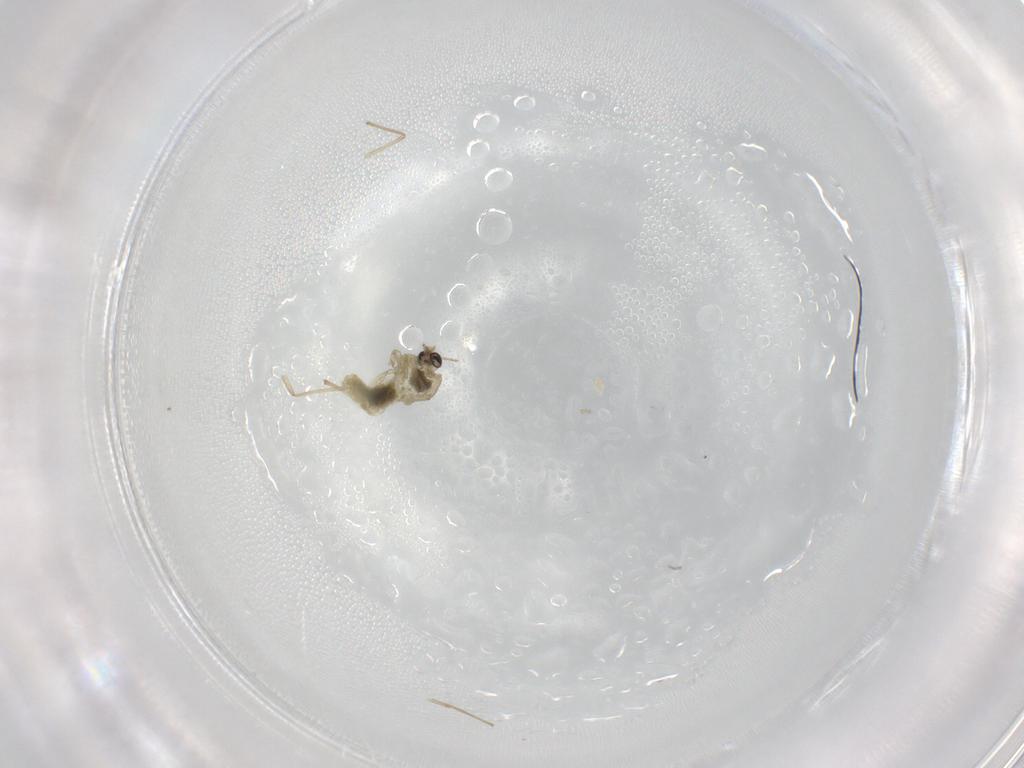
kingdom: Animalia
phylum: Arthropoda
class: Insecta
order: Diptera
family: Chironomidae
